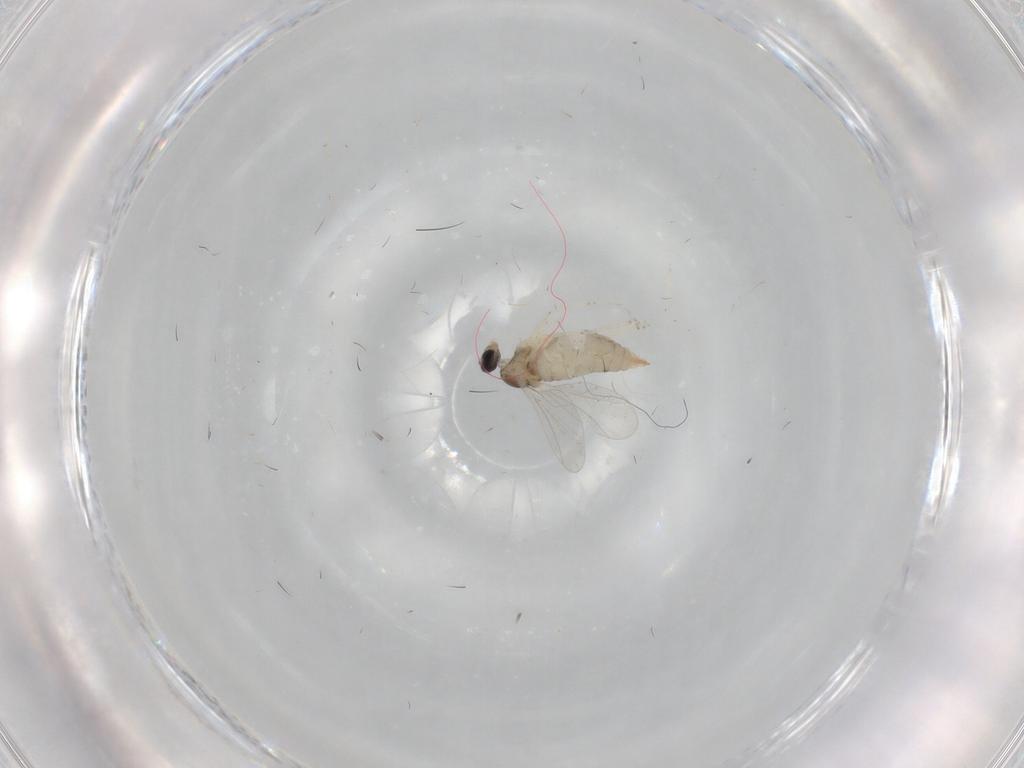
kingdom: Animalia
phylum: Arthropoda
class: Insecta
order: Diptera
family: Cecidomyiidae
